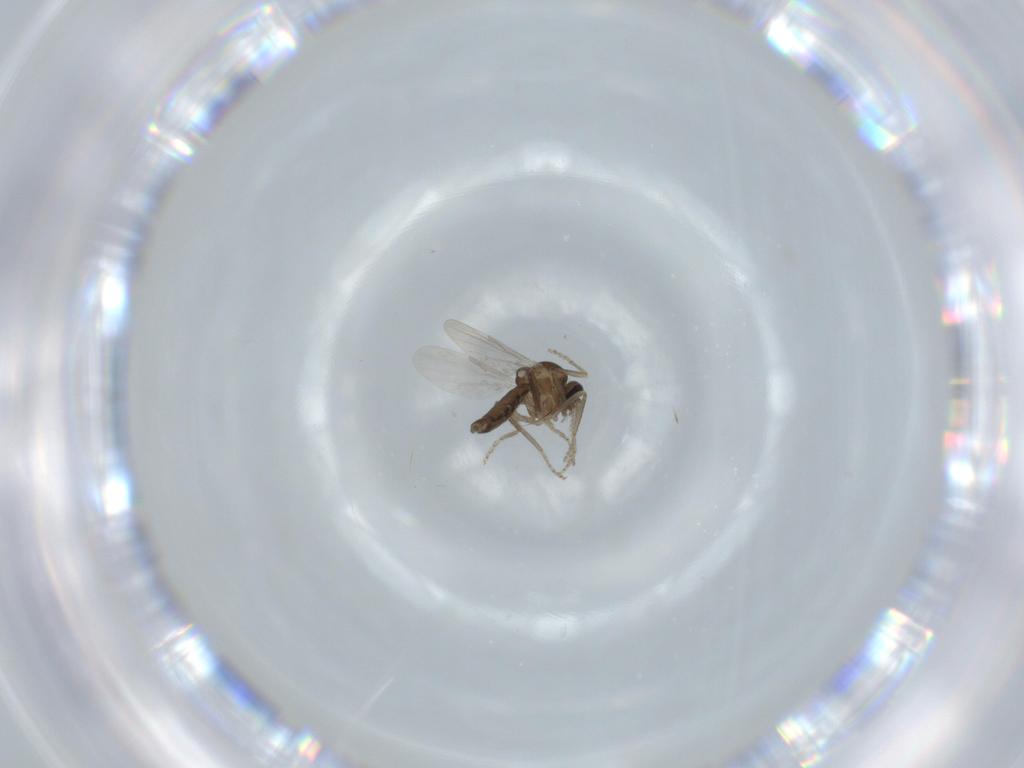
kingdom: Animalia
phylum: Arthropoda
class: Insecta
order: Diptera
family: Ceratopogonidae
